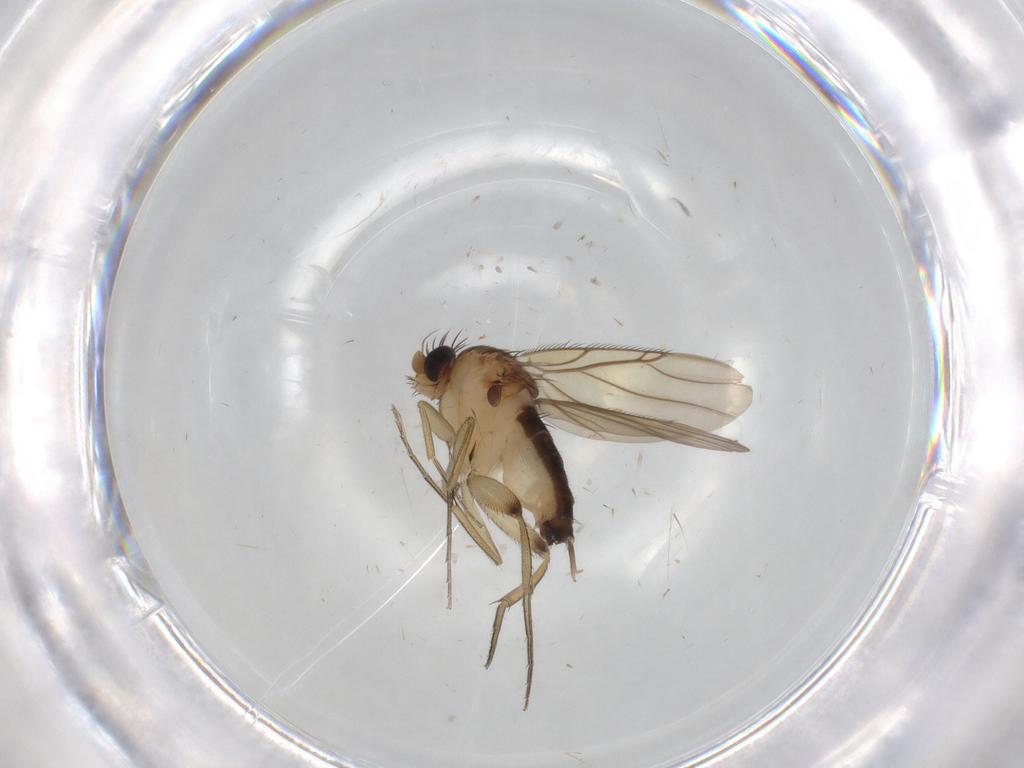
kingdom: Animalia
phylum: Arthropoda
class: Insecta
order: Diptera
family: Phoridae
